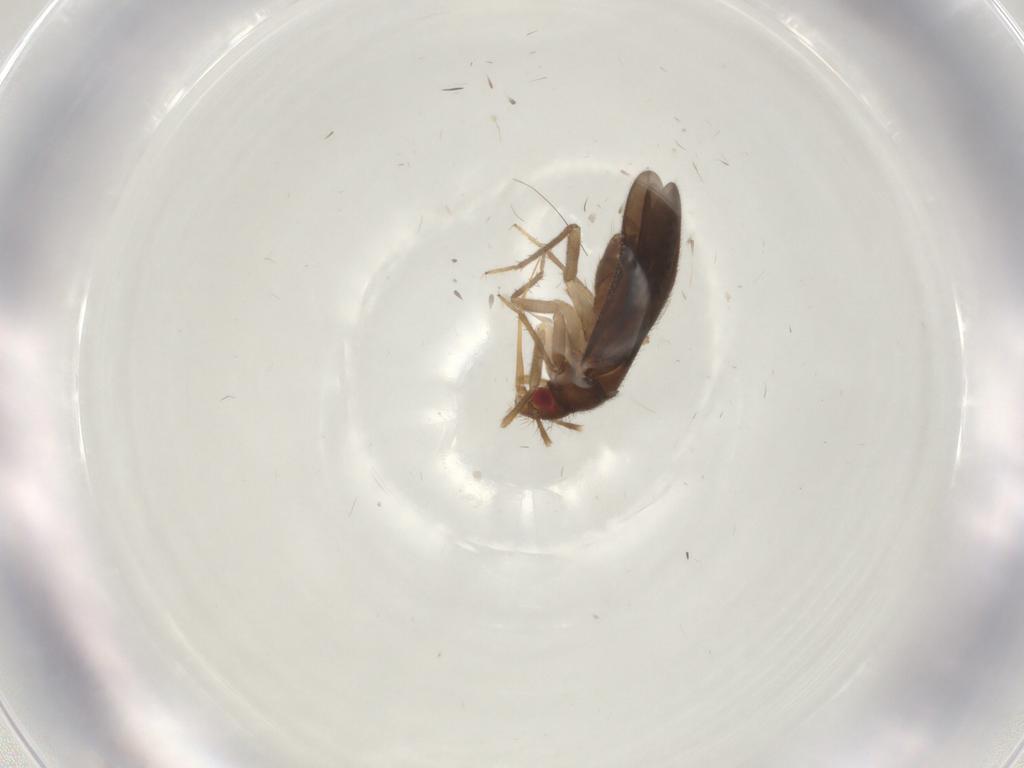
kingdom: Animalia
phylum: Arthropoda
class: Insecta
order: Hemiptera
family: Ceratocombidae
